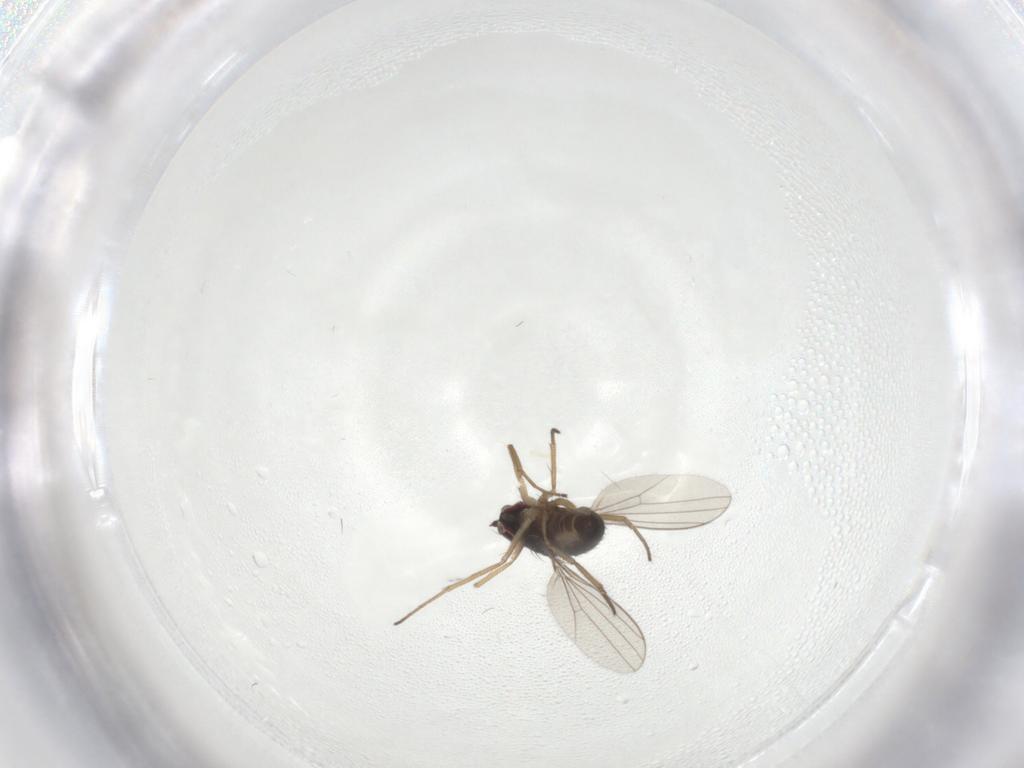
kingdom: Animalia
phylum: Arthropoda
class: Insecta
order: Diptera
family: Dolichopodidae
